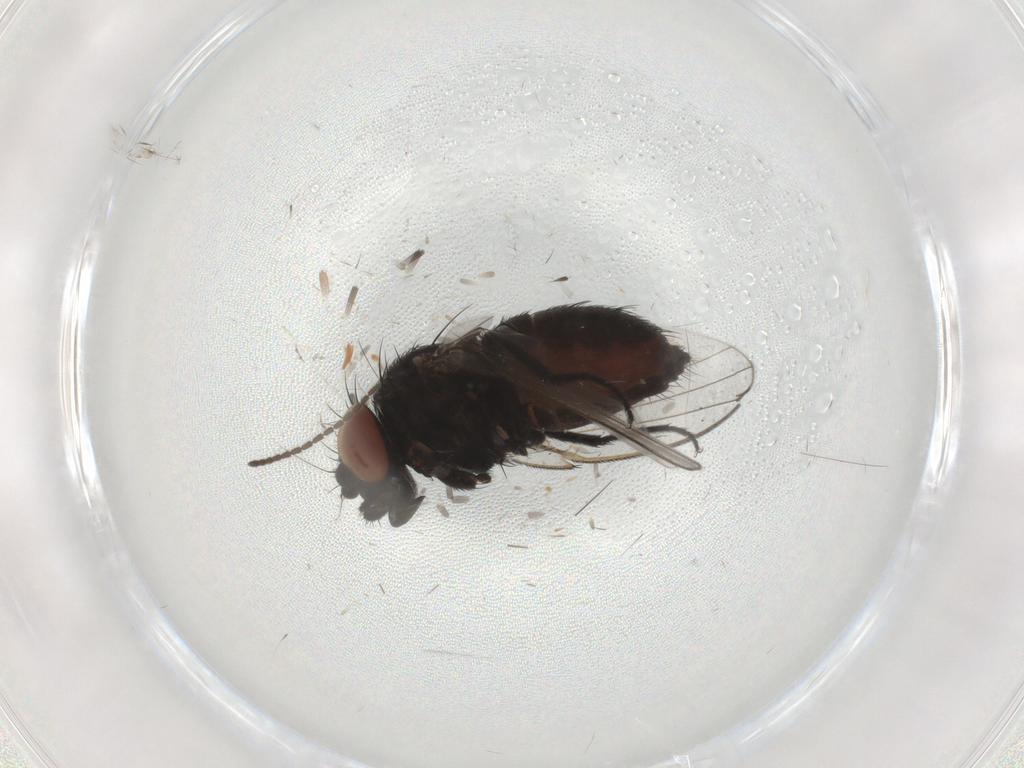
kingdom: Animalia
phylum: Arthropoda
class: Insecta
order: Diptera
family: Milichiidae
